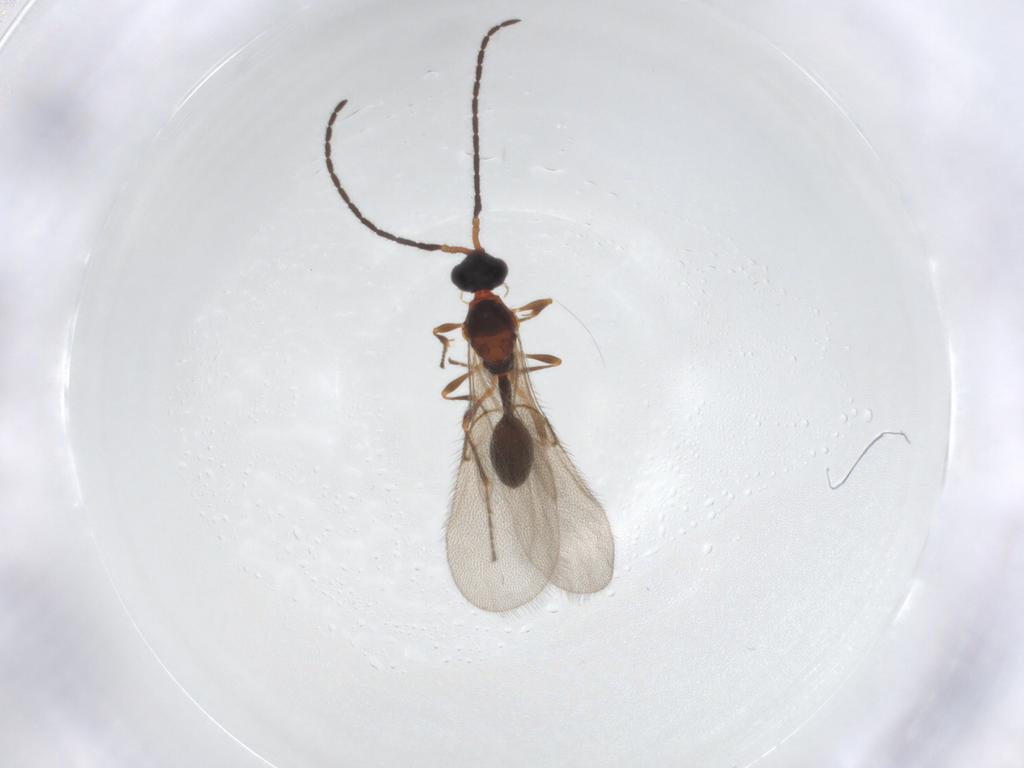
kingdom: Animalia
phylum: Arthropoda
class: Insecta
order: Hymenoptera
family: Diapriidae
